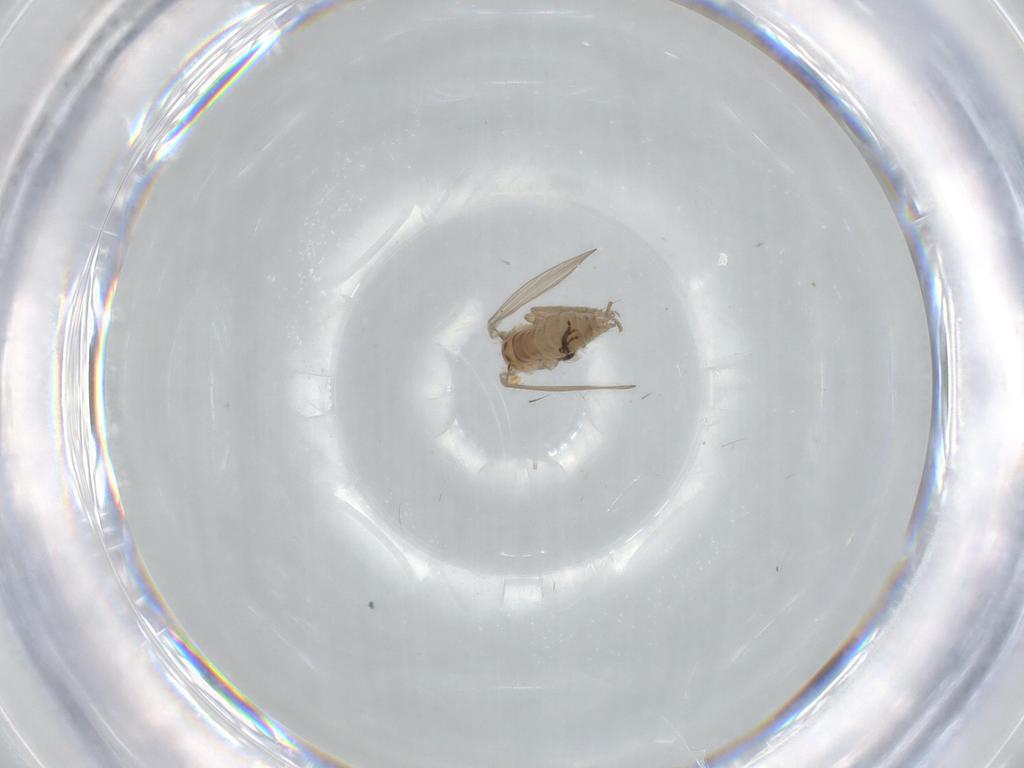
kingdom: Animalia
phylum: Arthropoda
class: Insecta
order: Diptera
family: Psychodidae
